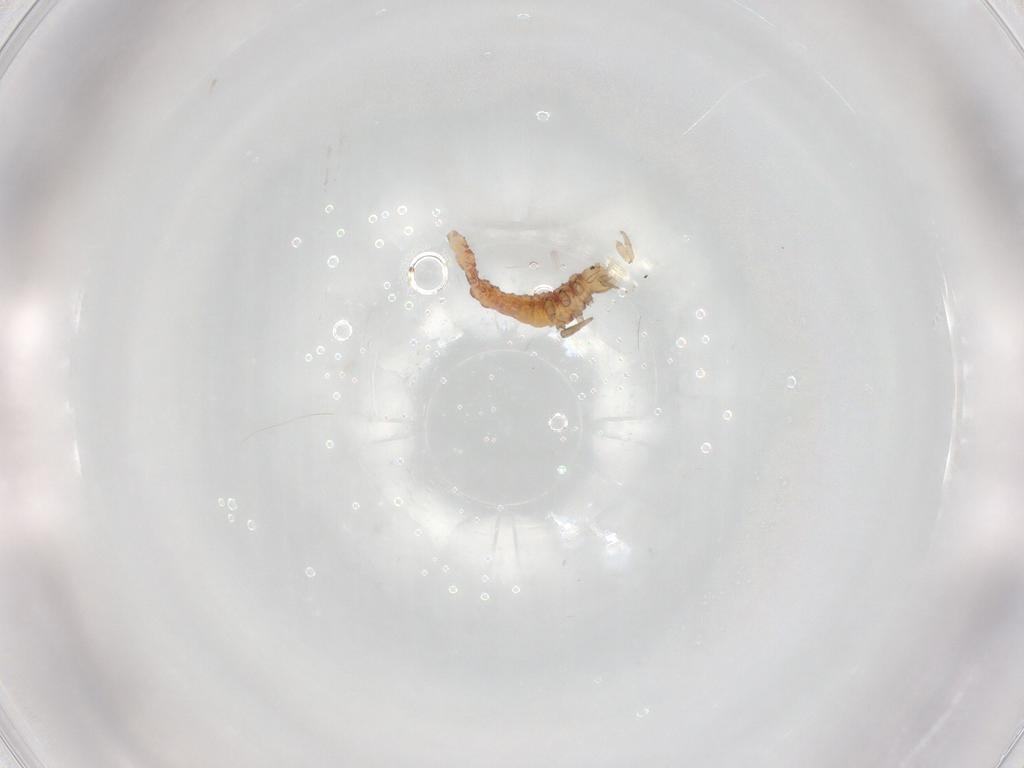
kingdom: Animalia
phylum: Arthropoda
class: Insecta
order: Neuroptera
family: Hemerobiidae
